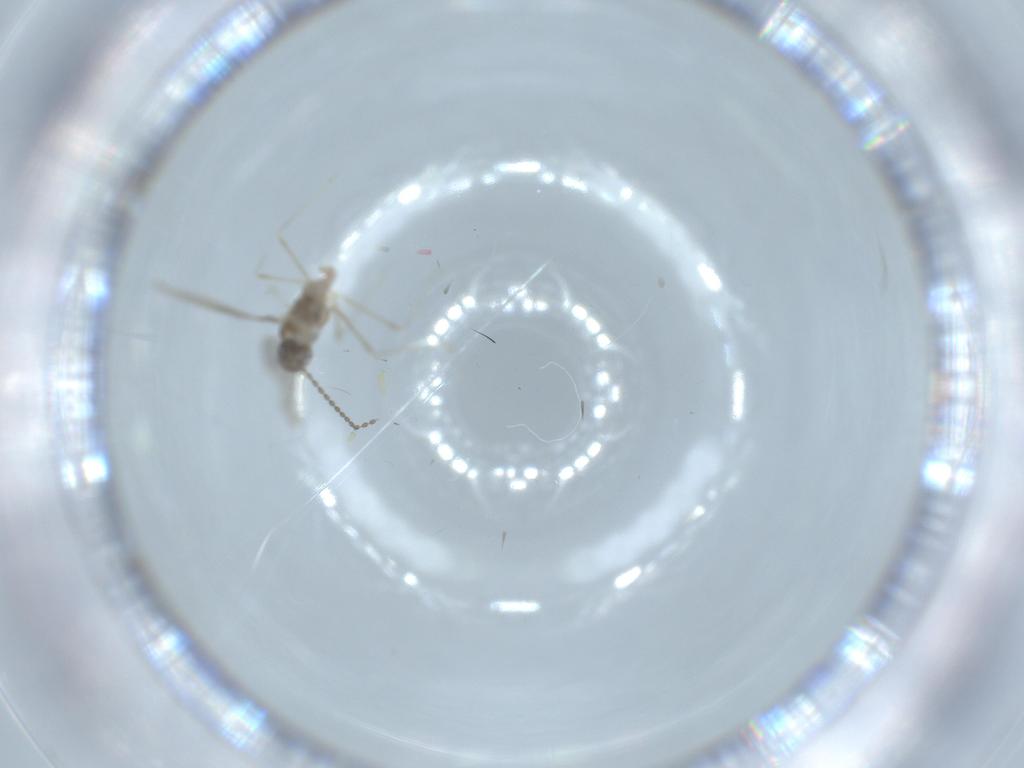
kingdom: Animalia
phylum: Arthropoda
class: Insecta
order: Diptera
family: Cecidomyiidae
